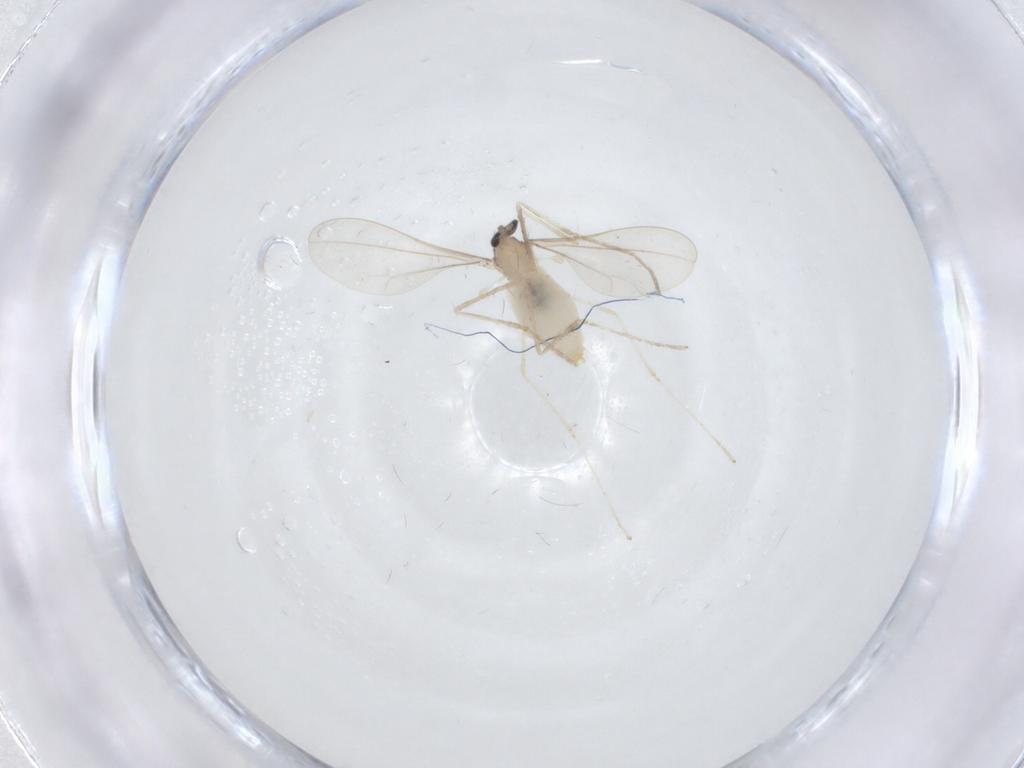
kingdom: Animalia
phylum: Arthropoda
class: Insecta
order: Diptera
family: Cecidomyiidae
